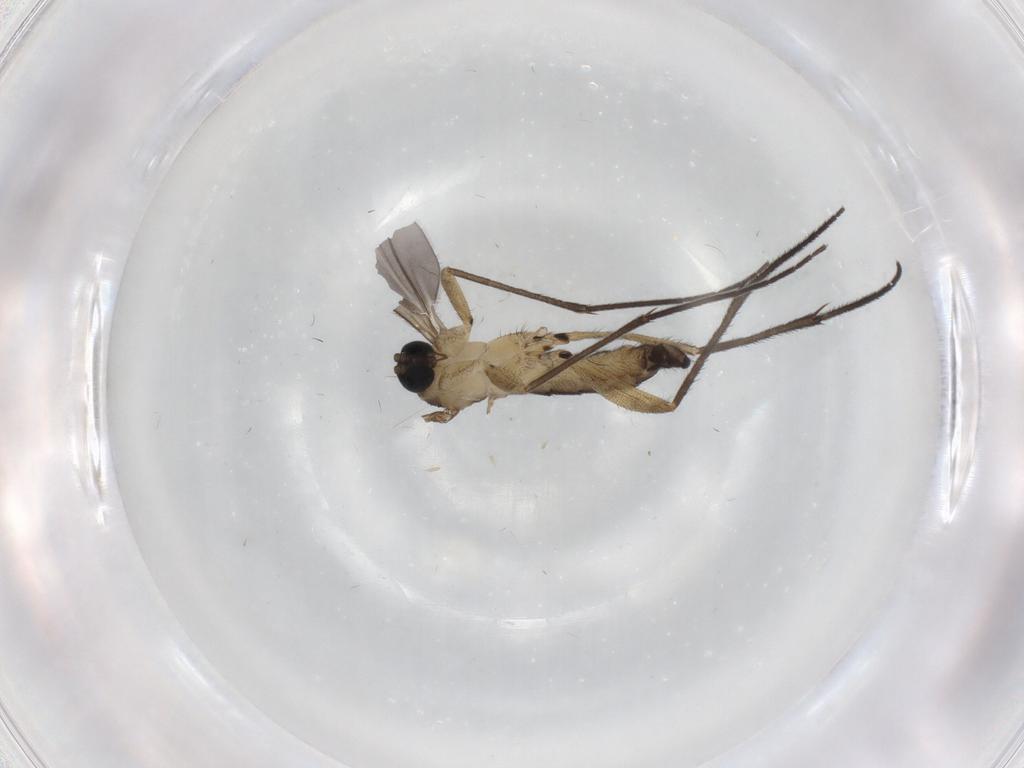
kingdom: Animalia
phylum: Arthropoda
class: Insecta
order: Diptera
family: Sciaridae
